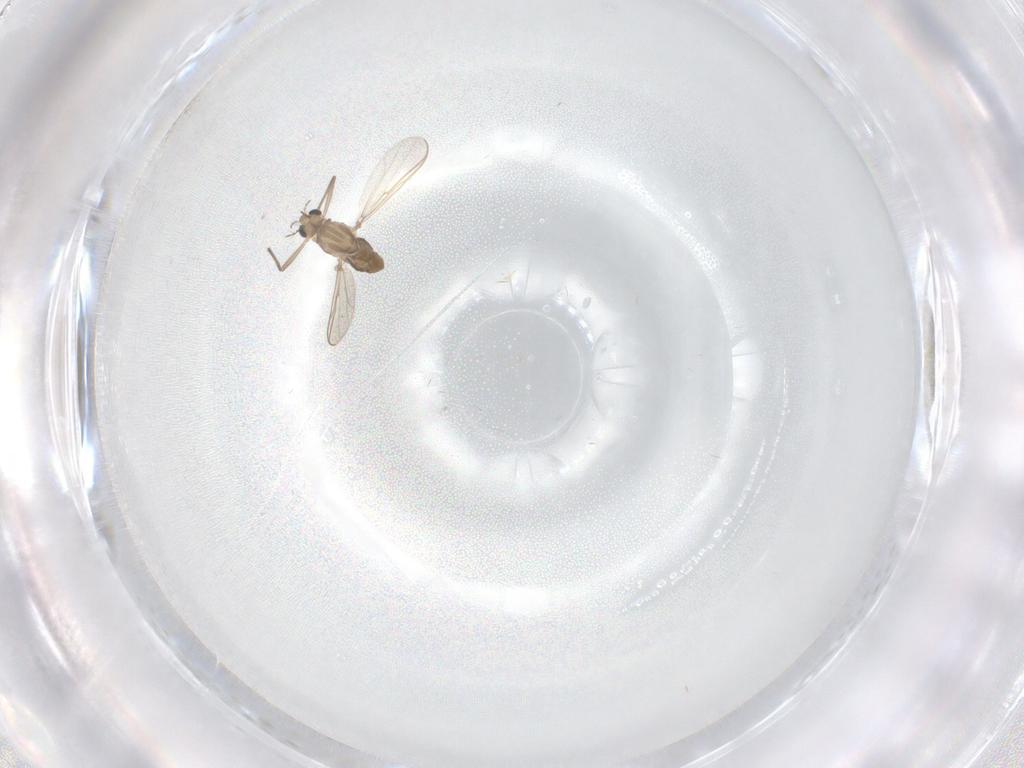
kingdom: Animalia
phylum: Arthropoda
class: Insecta
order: Diptera
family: Chironomidae
